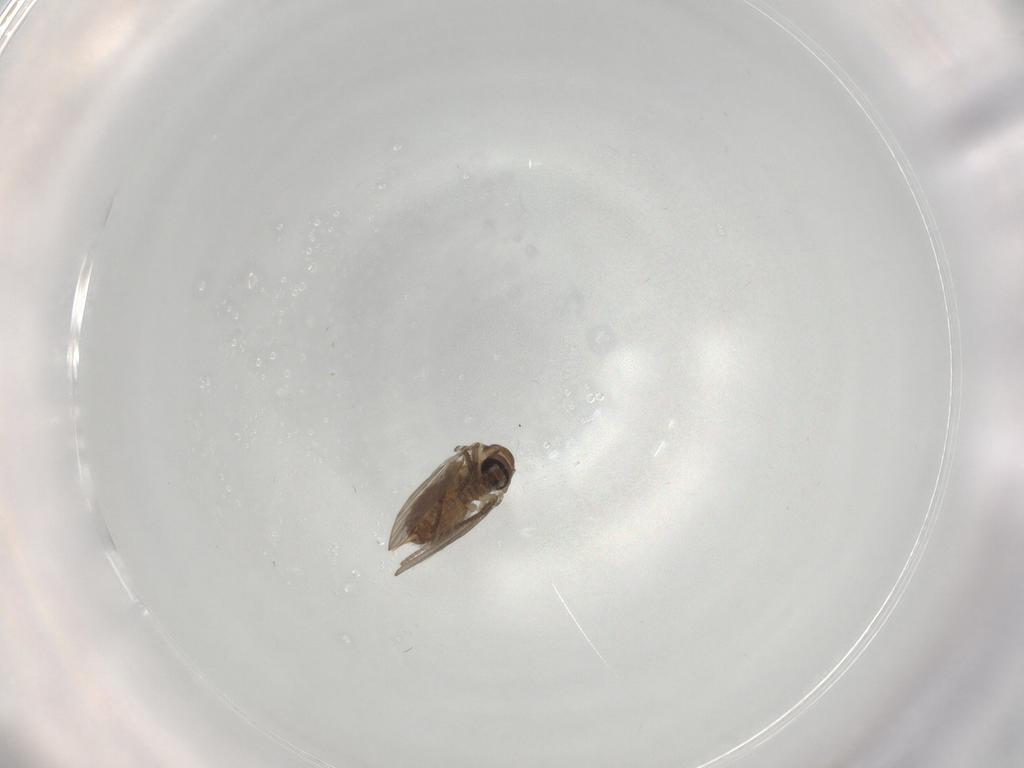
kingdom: Animalia
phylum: Arthropoda
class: Insecta
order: Diptera
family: Psychodidae
